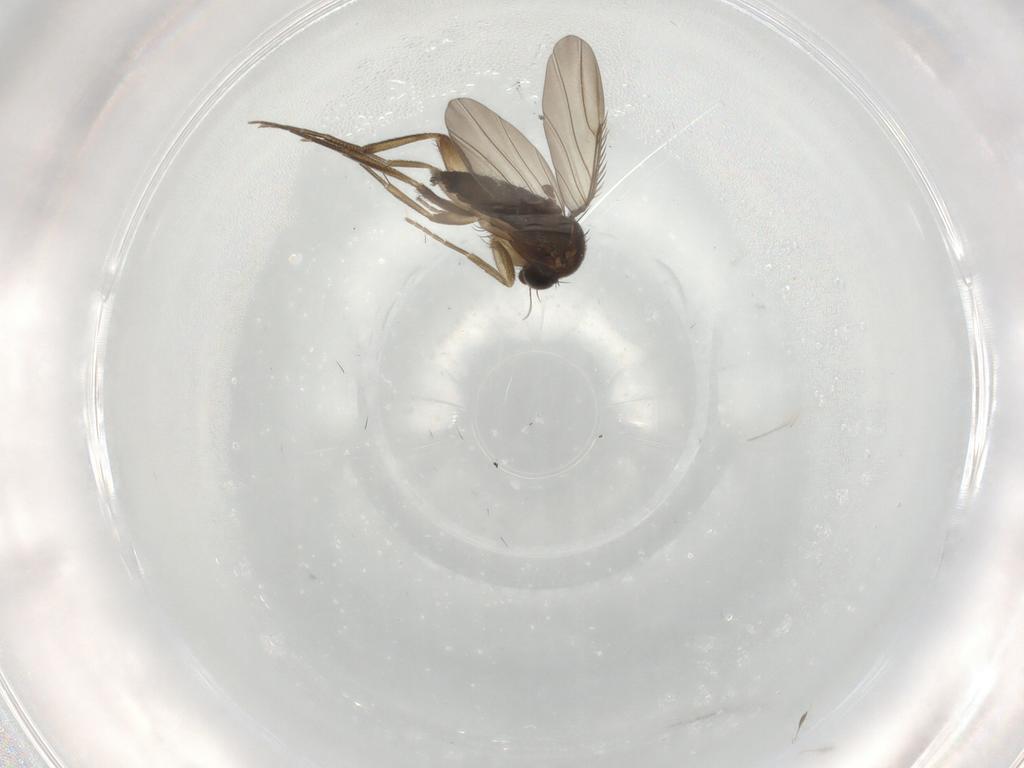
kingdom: Animalia
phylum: Arthropoda
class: Insecta
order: Diptera
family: Phoridae
